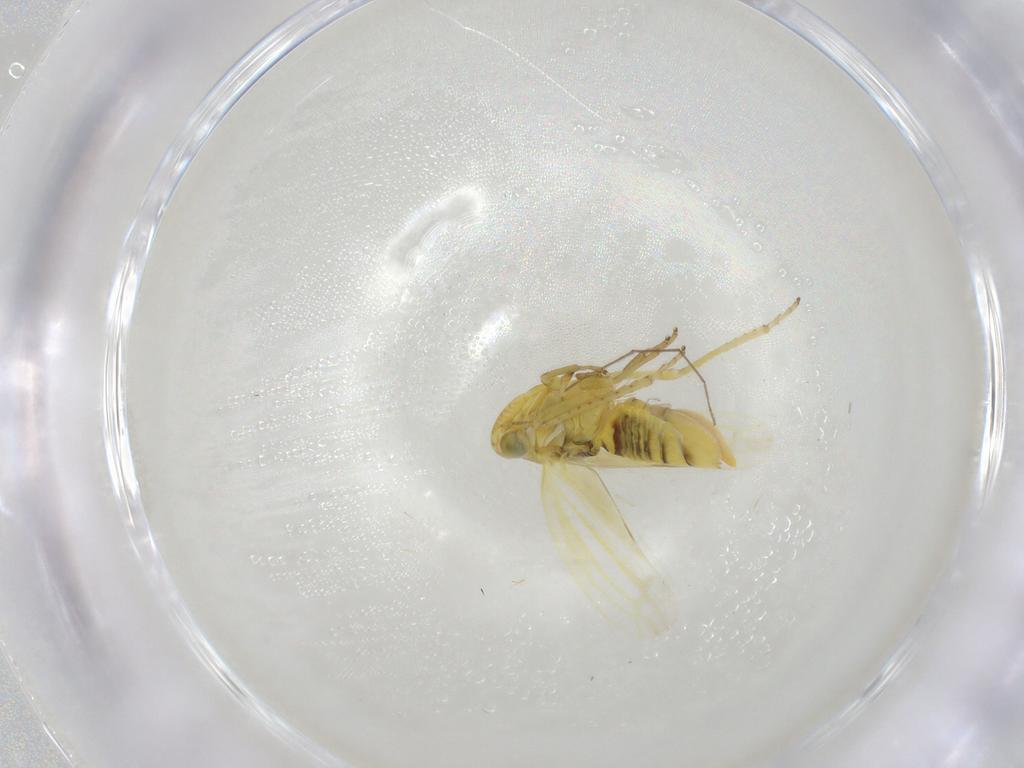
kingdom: Animalia
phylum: Arthropoda
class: Insecta
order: Hemiptera
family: Cicadellidae
